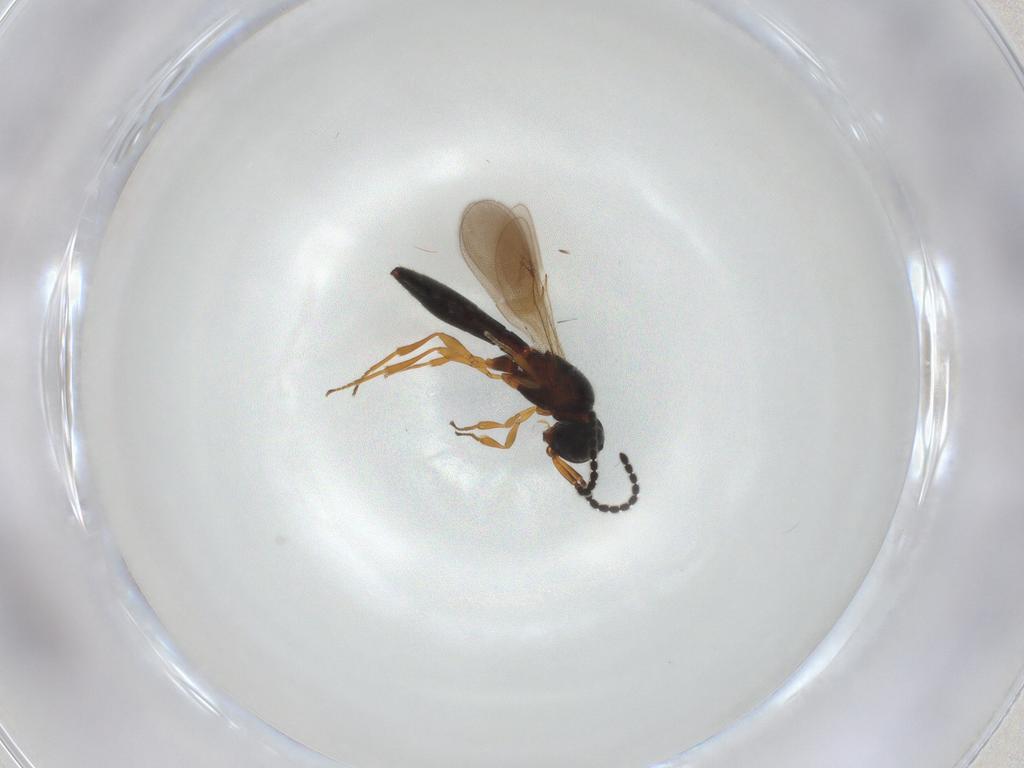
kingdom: Animalia
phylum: Arthropoda
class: Insecta
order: Hymenoptera
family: Scelionidae
